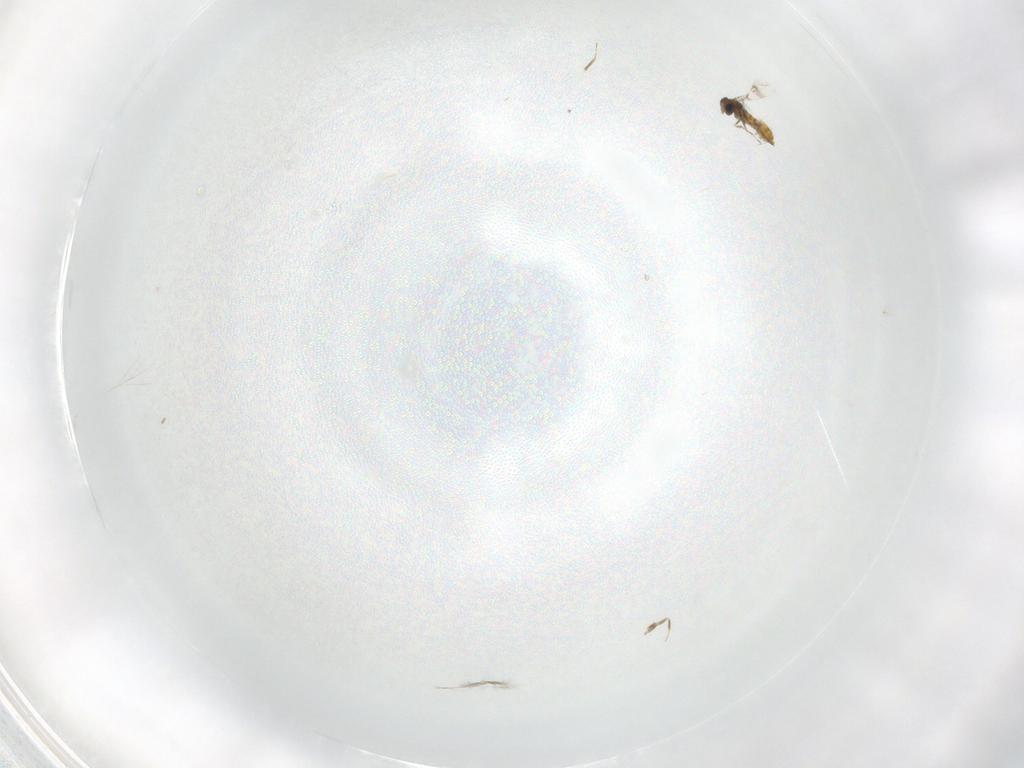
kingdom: Animalia
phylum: Arthropoda
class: Insecta
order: Hymenoptera
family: Mymaridae
